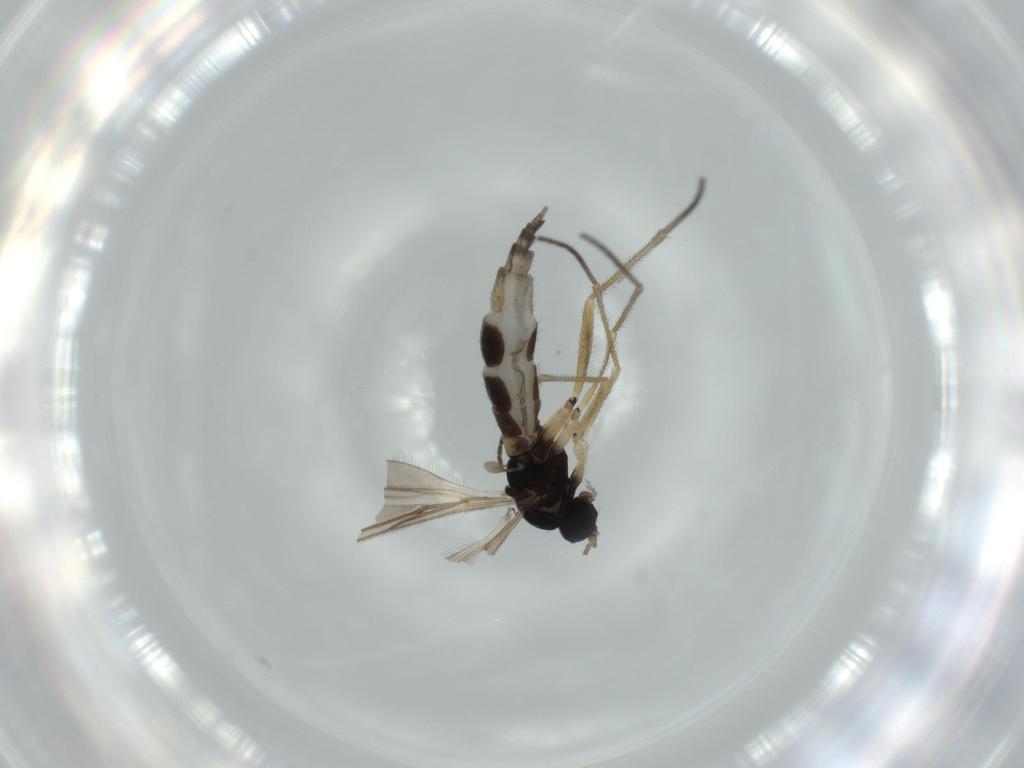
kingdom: Animalia
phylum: Arthropoda
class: Insecta
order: Diptera
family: Sciaridae
